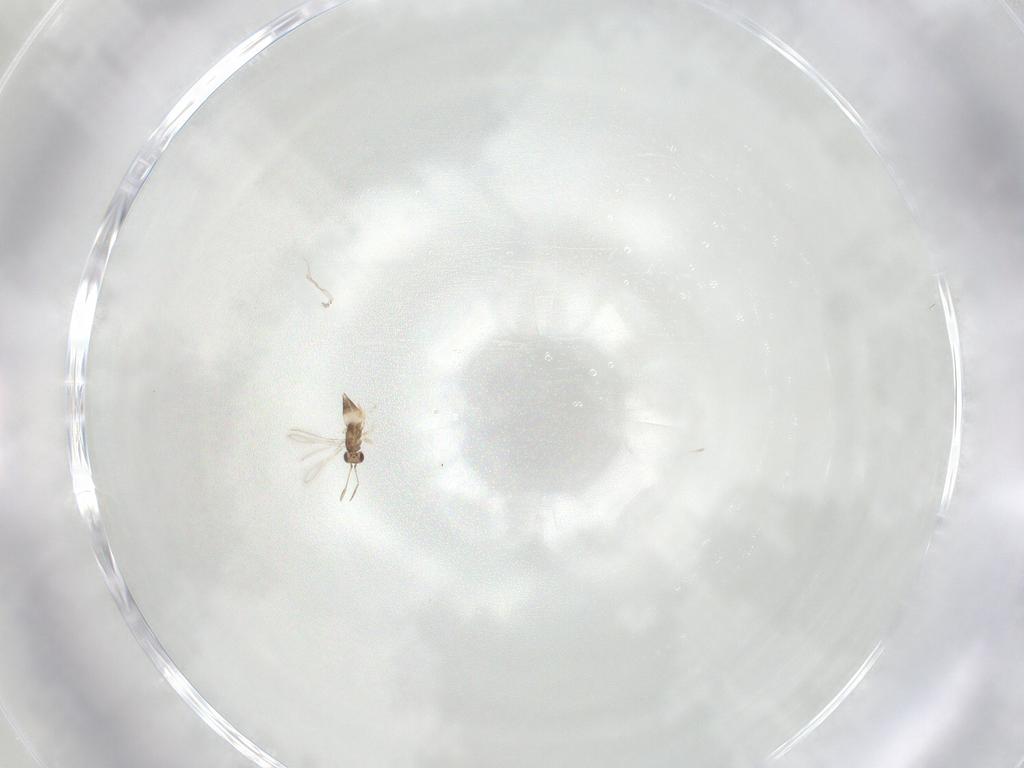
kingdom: Animalia
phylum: Arthropoda
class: Insecta
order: Hymenoptera
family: Mymaridae
